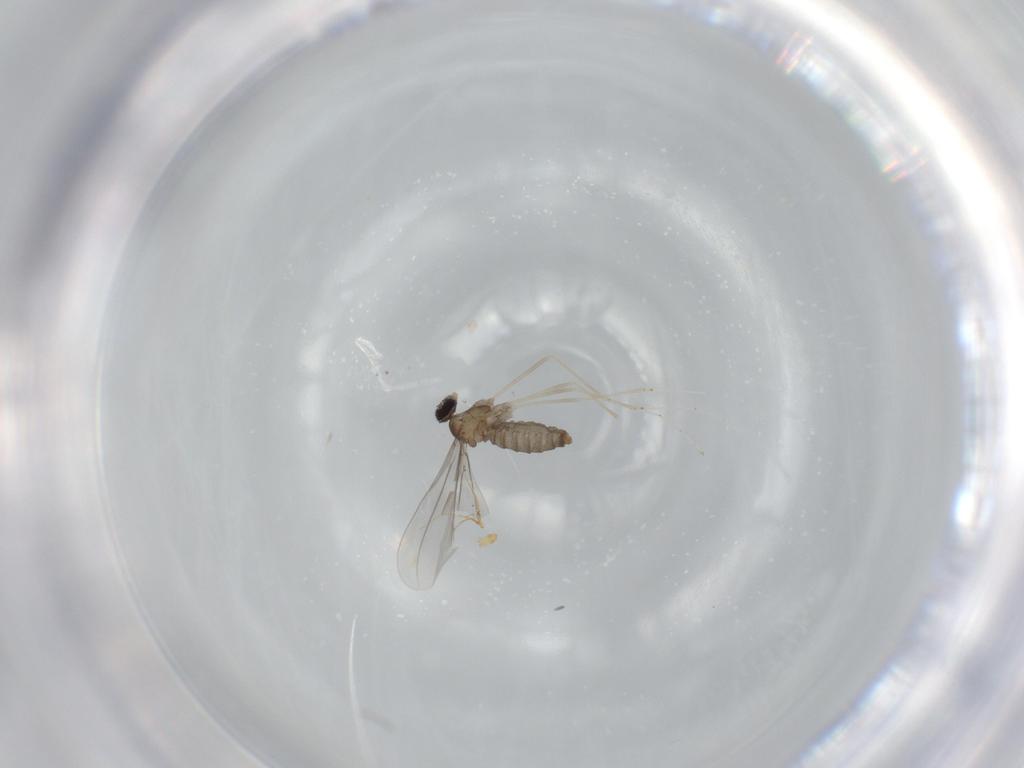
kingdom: Animalia
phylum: Arthropoda
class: Insecta
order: Diptera
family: Cecidomyiidae
